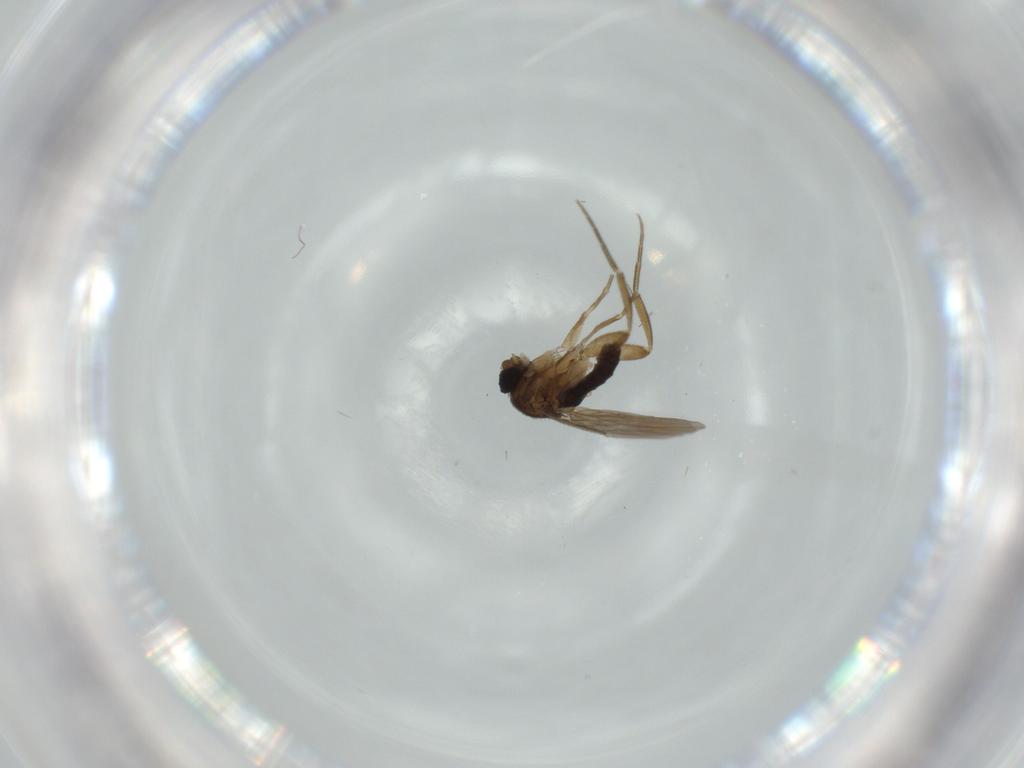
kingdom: Animalia
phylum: Arthropoda
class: Insecta
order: Diptera
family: Phoridae
